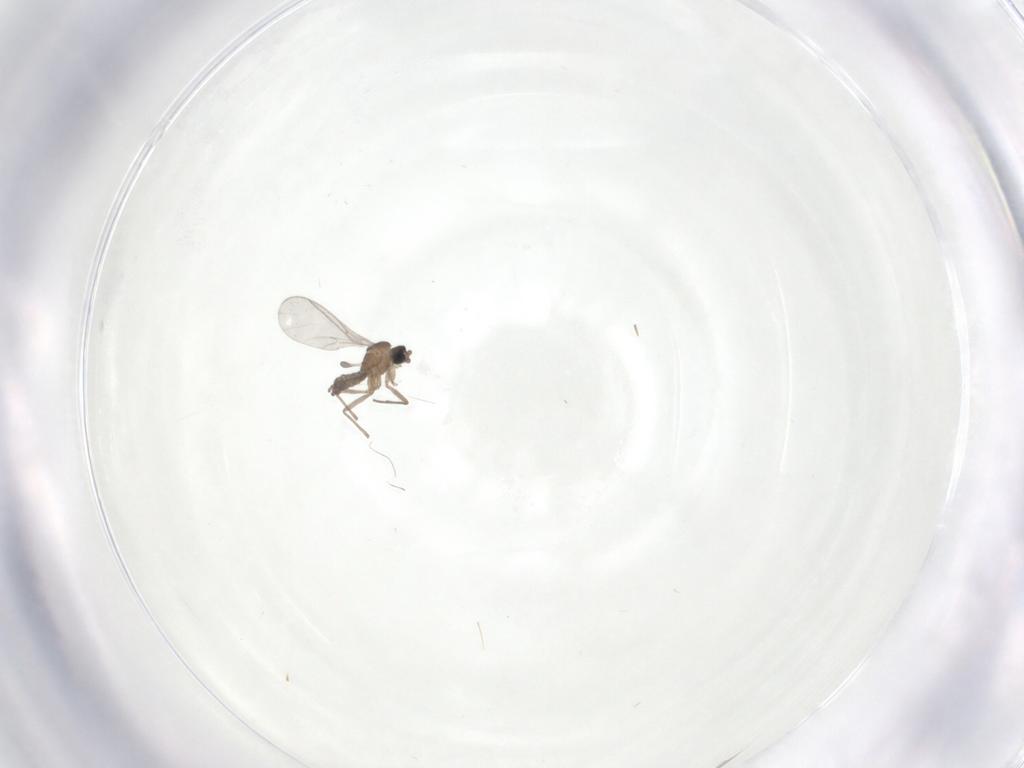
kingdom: Animalia
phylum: Arthropoda
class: Insecta
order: Diptera
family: Sciaridae
